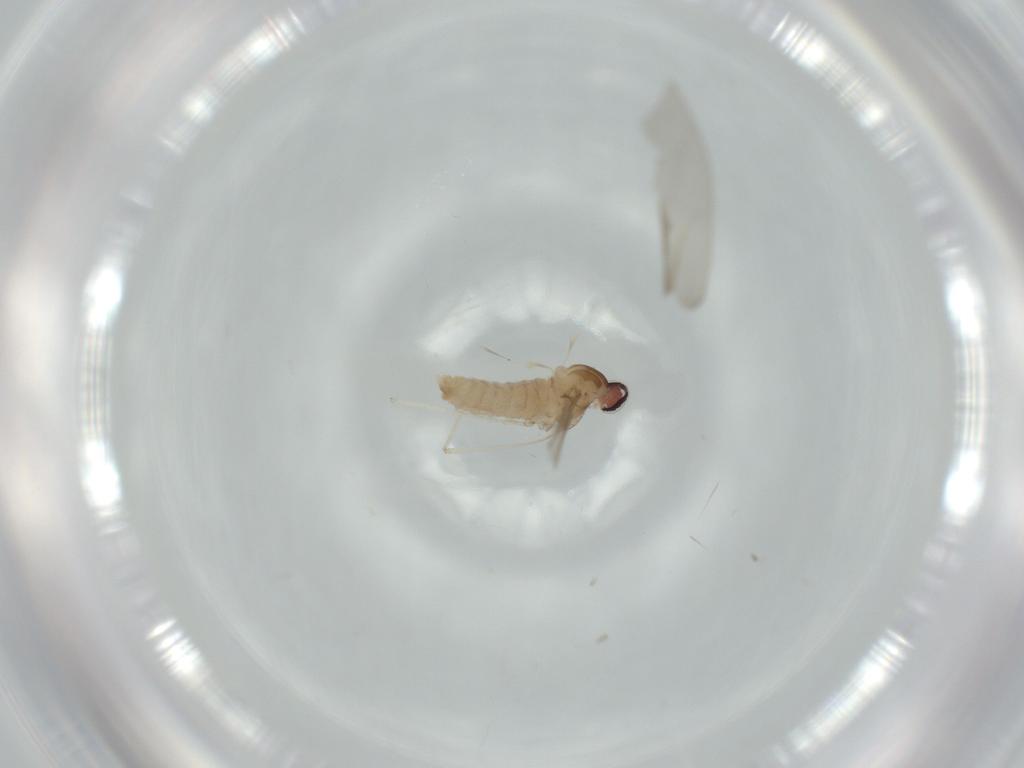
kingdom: Animalia
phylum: Arthropoda
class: Insecta
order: Diptera
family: Cecidomyiidae
